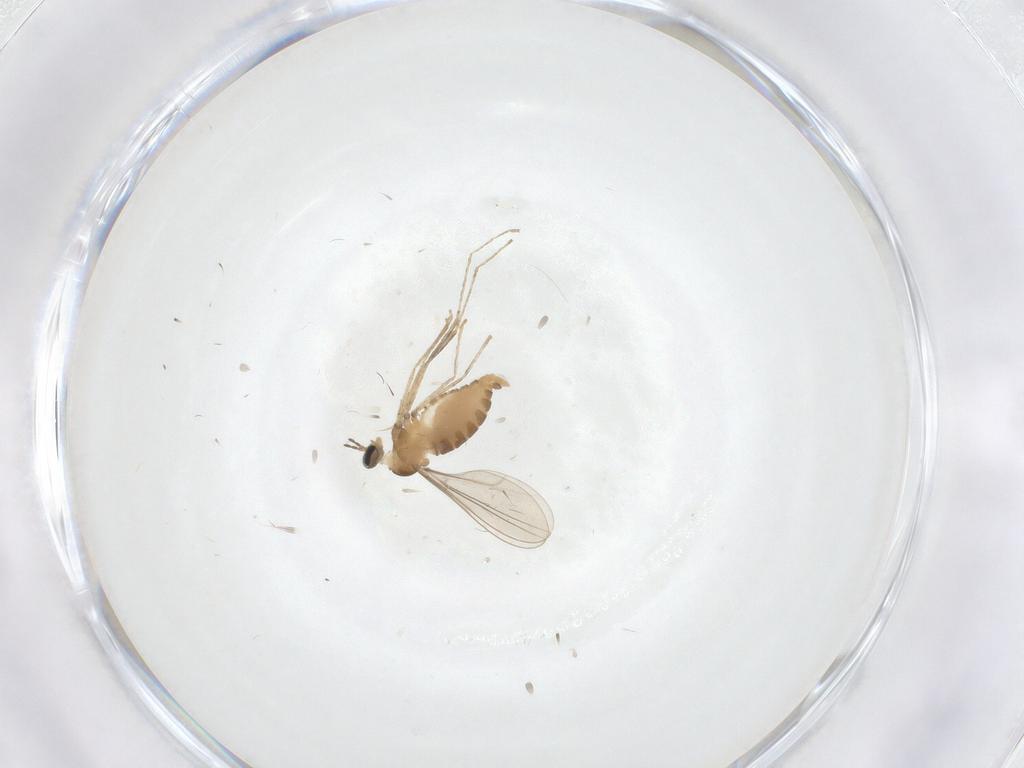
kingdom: Animalia
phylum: Arthropoda
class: Insecta
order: Diptera
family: Cecidomyiidae
